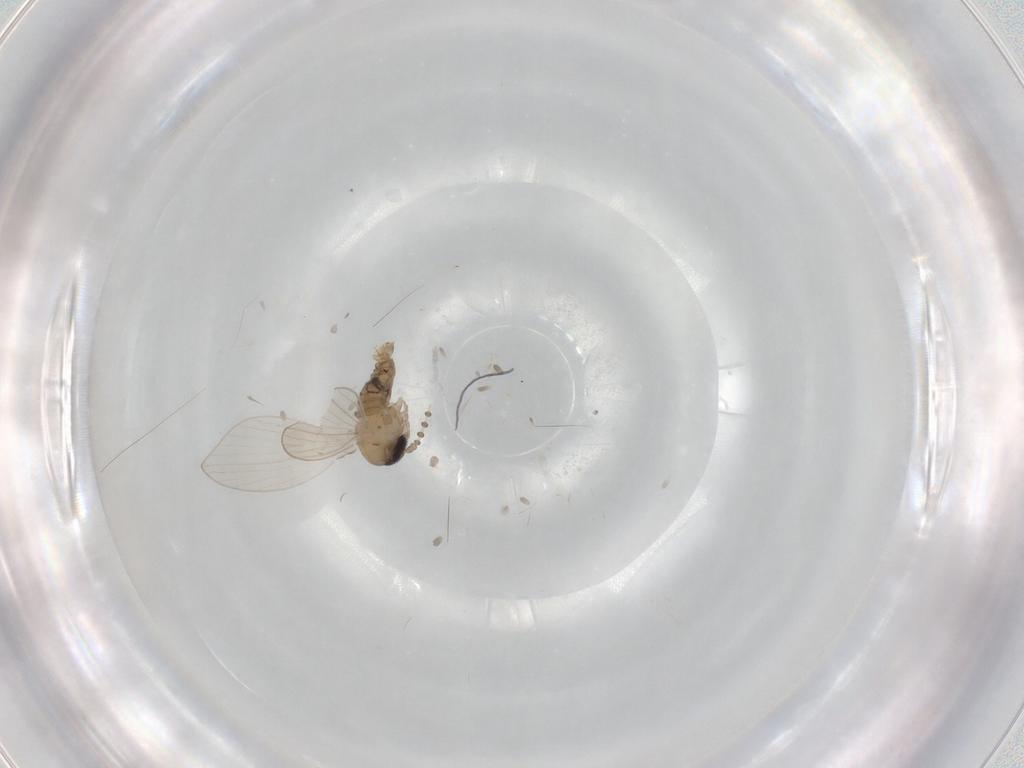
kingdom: Animalia
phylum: Arthropoda
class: Insecta
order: Diptera
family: Psychodidae
